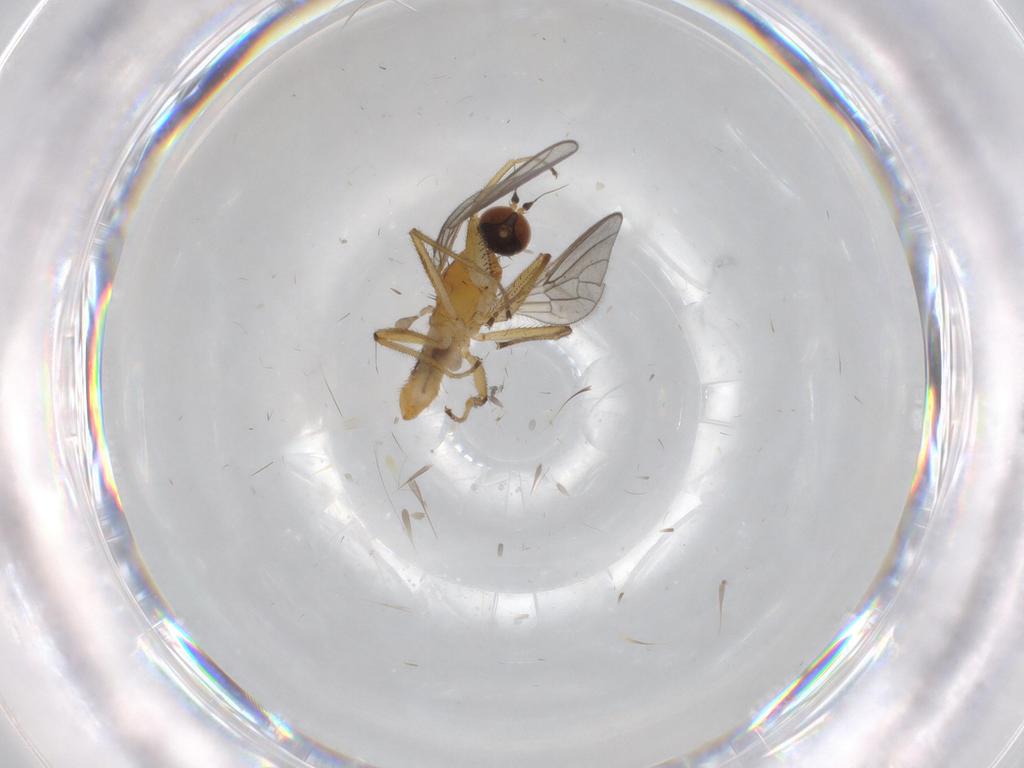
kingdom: Animalia
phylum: Arthropoda
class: Insecta
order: Diptera
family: Empididae
